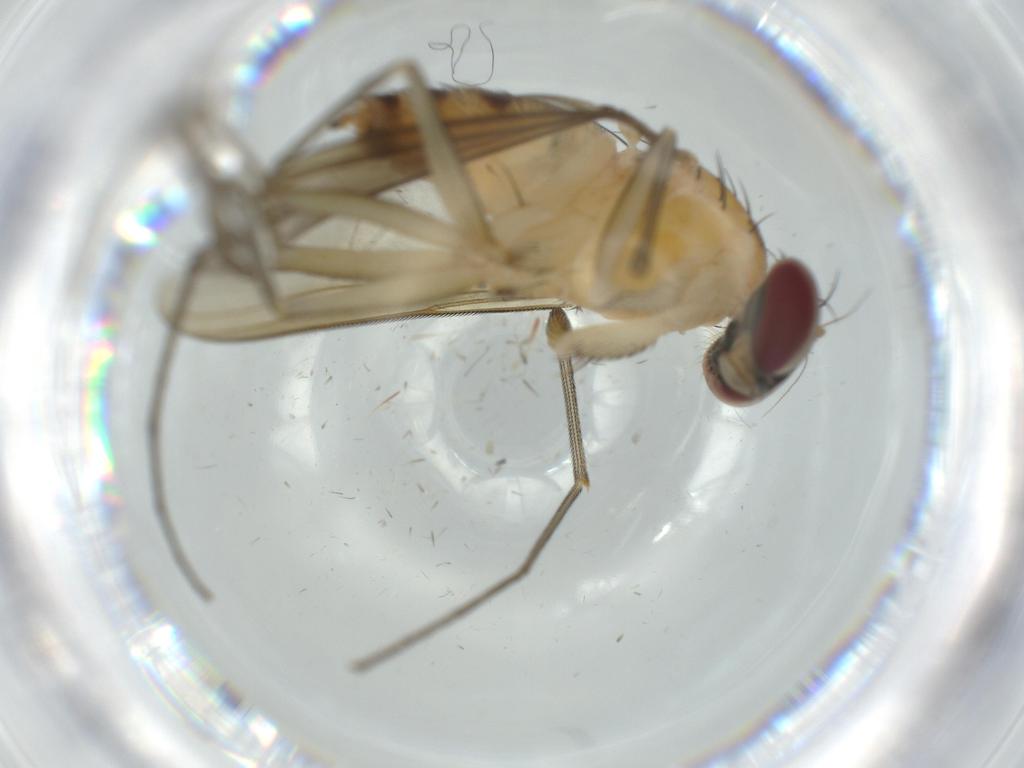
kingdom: Animalia
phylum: Arthropoda
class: Insecta
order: Diptera
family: Dolichopodidae
